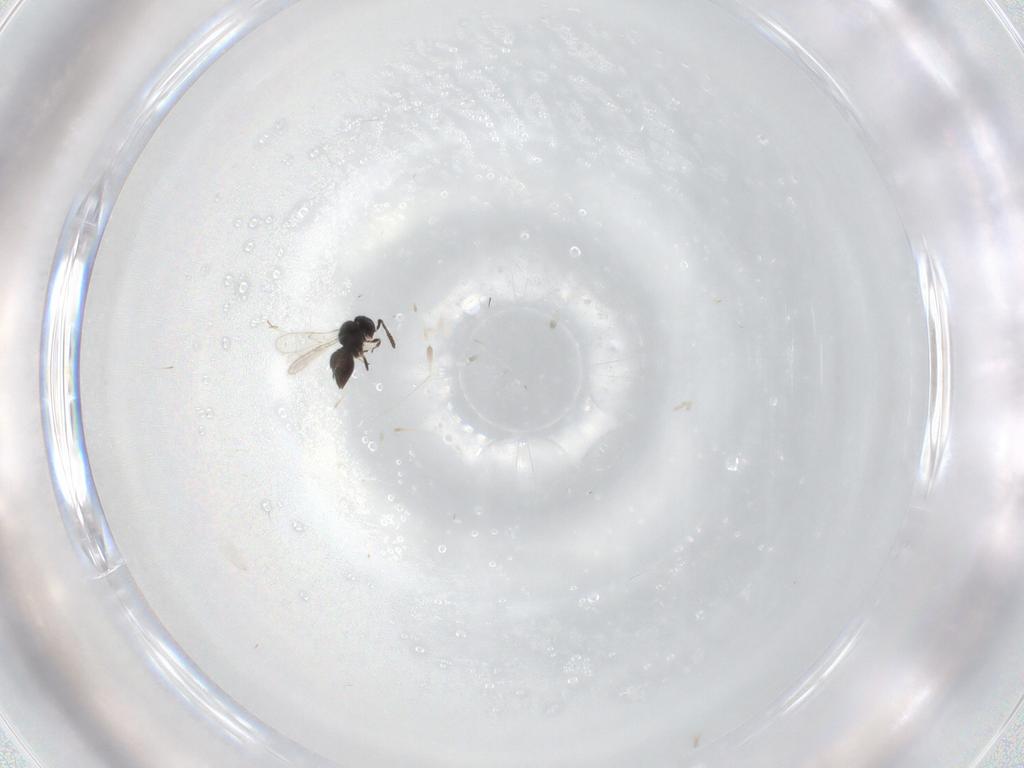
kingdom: Animalia
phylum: Arthropoda
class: Insecta
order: Hymenoptera
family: Scelionidae
